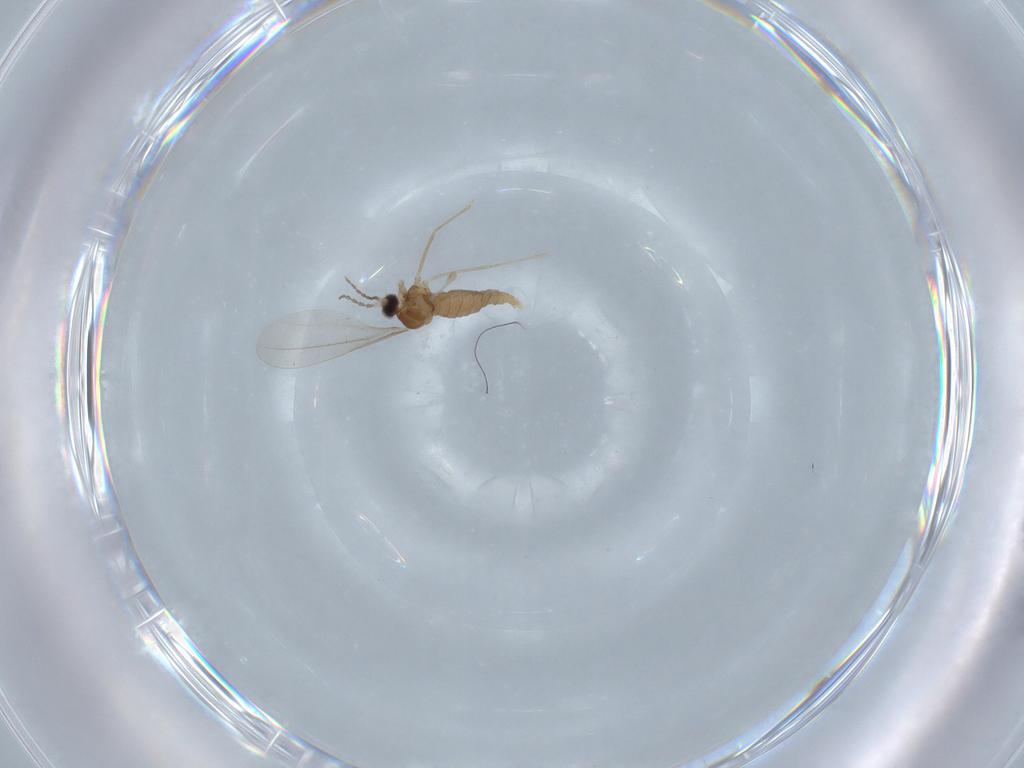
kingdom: Animalia
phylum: Arthropoda
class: Insecta
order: Diptera
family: Cecidomyiidae
